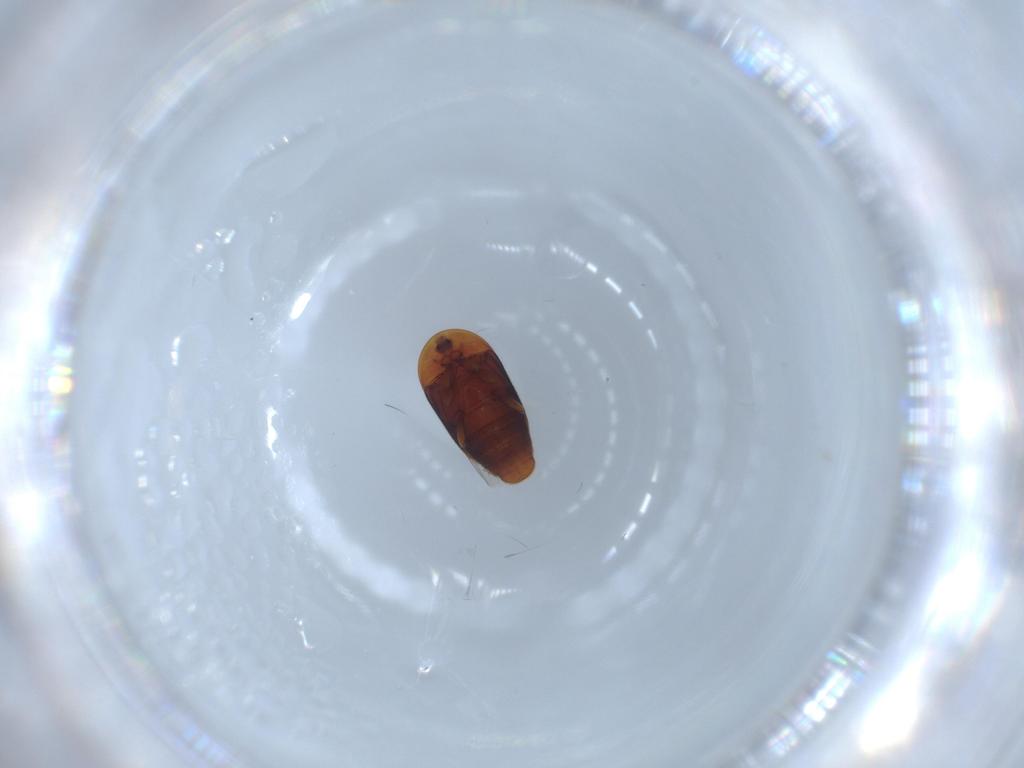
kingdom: Animalia
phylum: Arthropoda
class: Insecta
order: Coleoptera
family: Corylophidae
